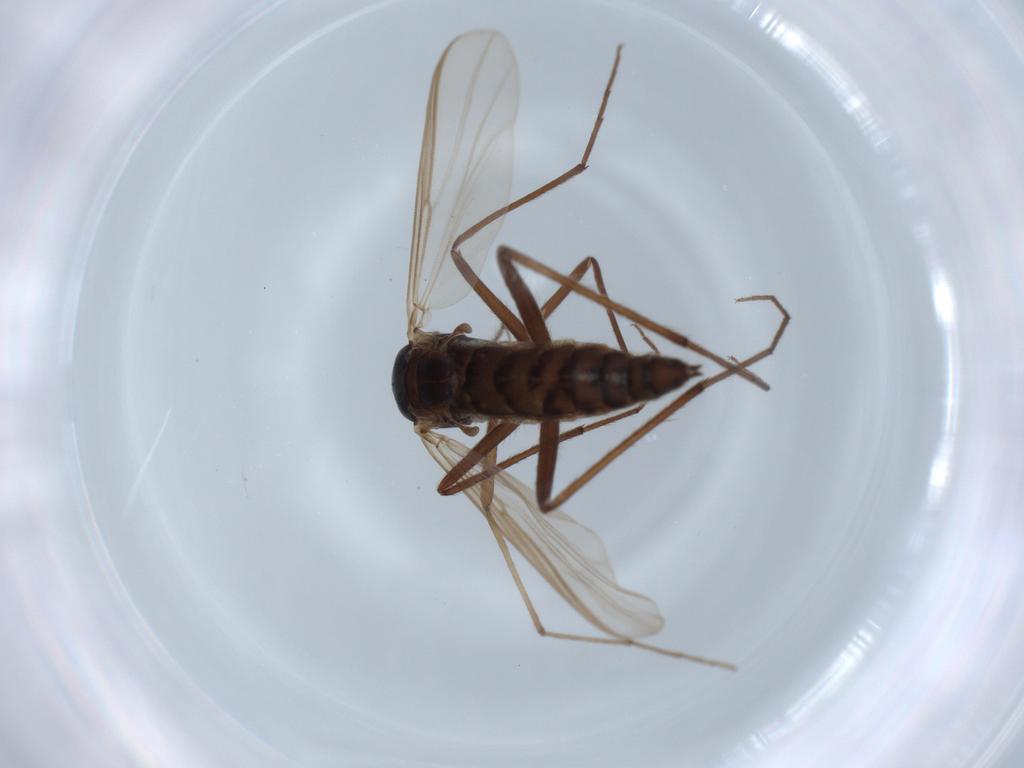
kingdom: Animalia
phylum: Arthropoda
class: Insecta
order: Diptera
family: Chironomidae
